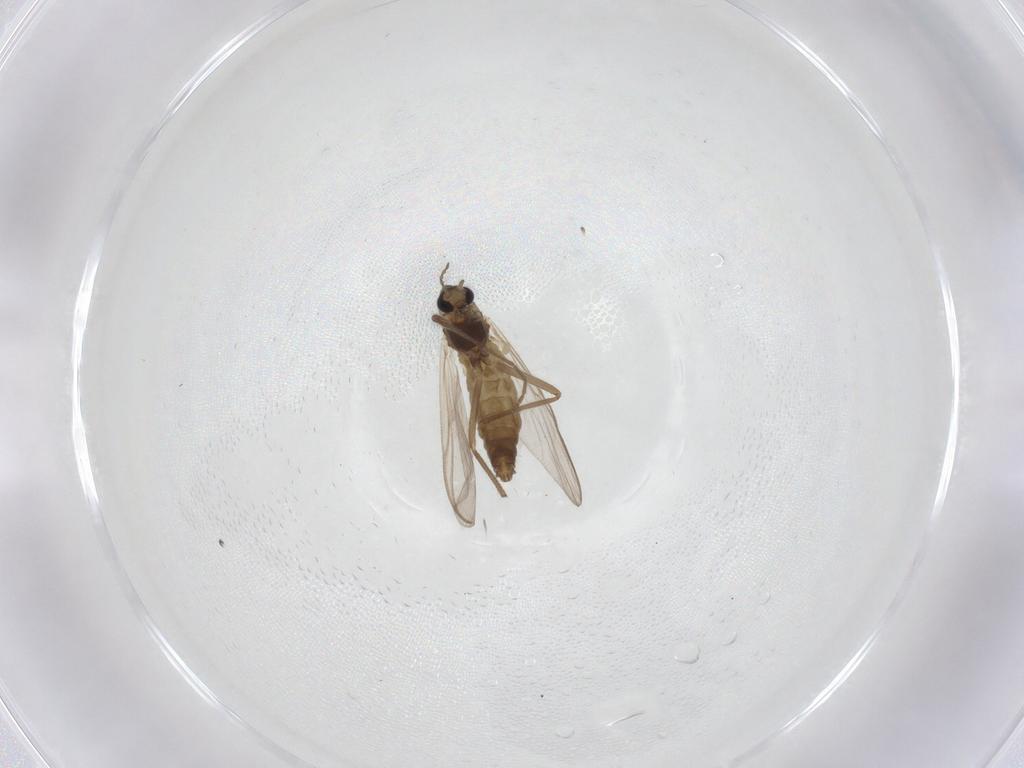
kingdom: Animalia
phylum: Arthropoda
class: Insecta
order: Diptera
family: Chironomidae
